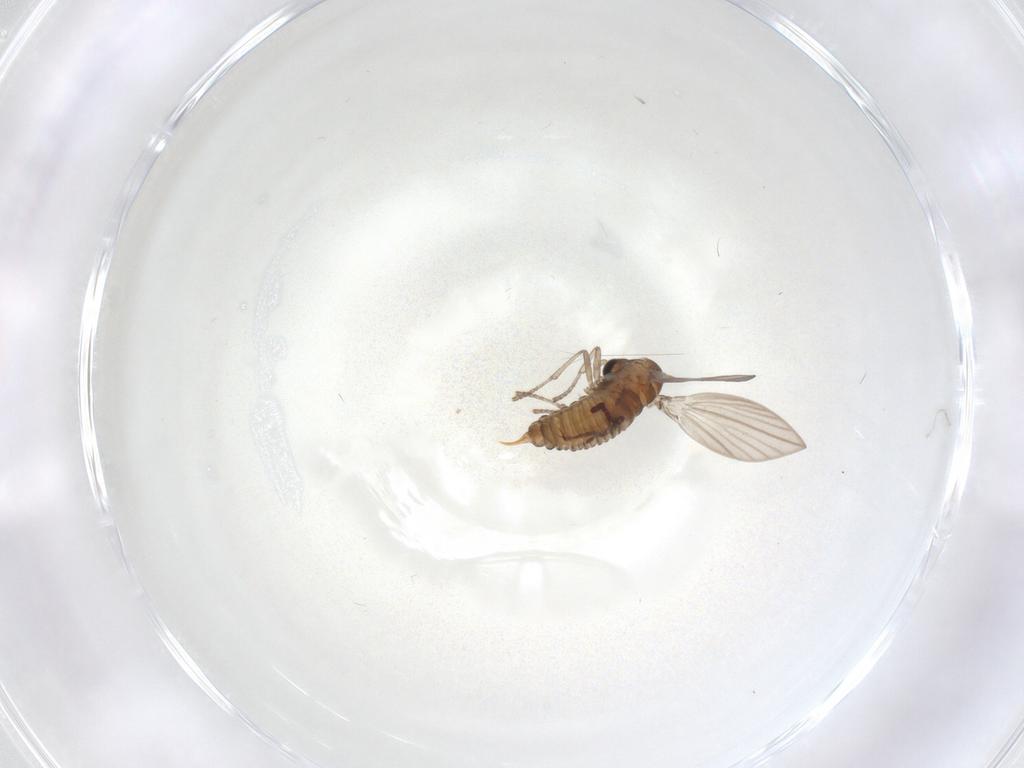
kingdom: Animalia
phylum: Arthropoda
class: Insecta
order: Diptera
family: Psychodidae
